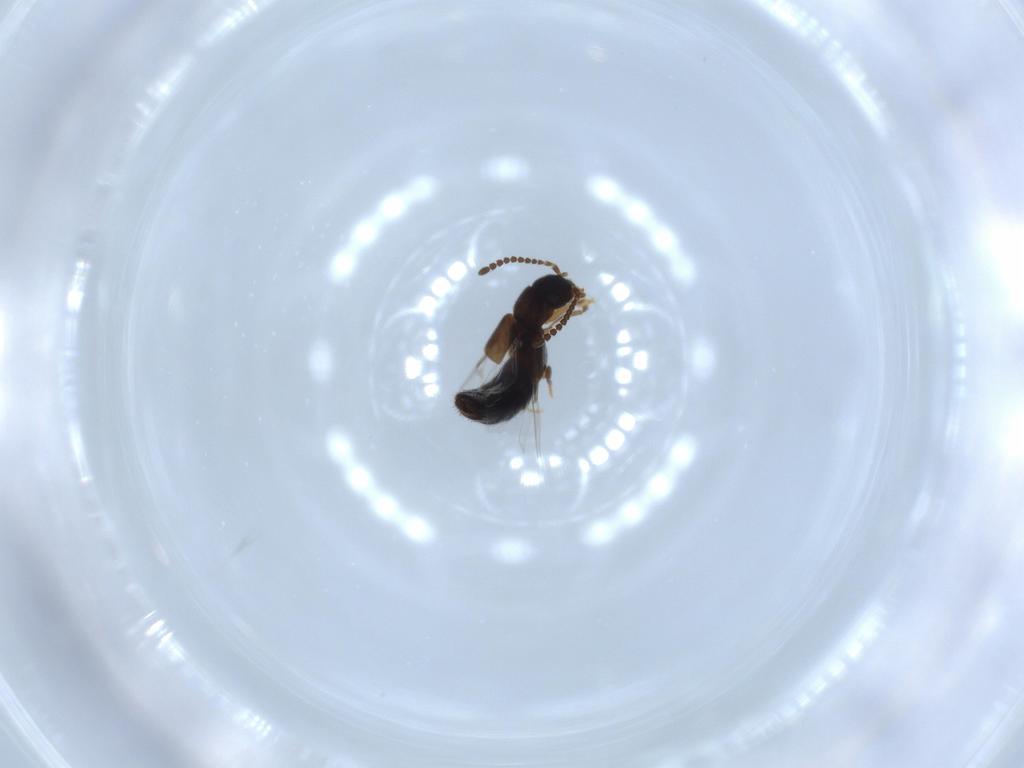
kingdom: Animalia
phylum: Arthropoda
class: Insecta
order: Coleoptera
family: Staphylinidae
